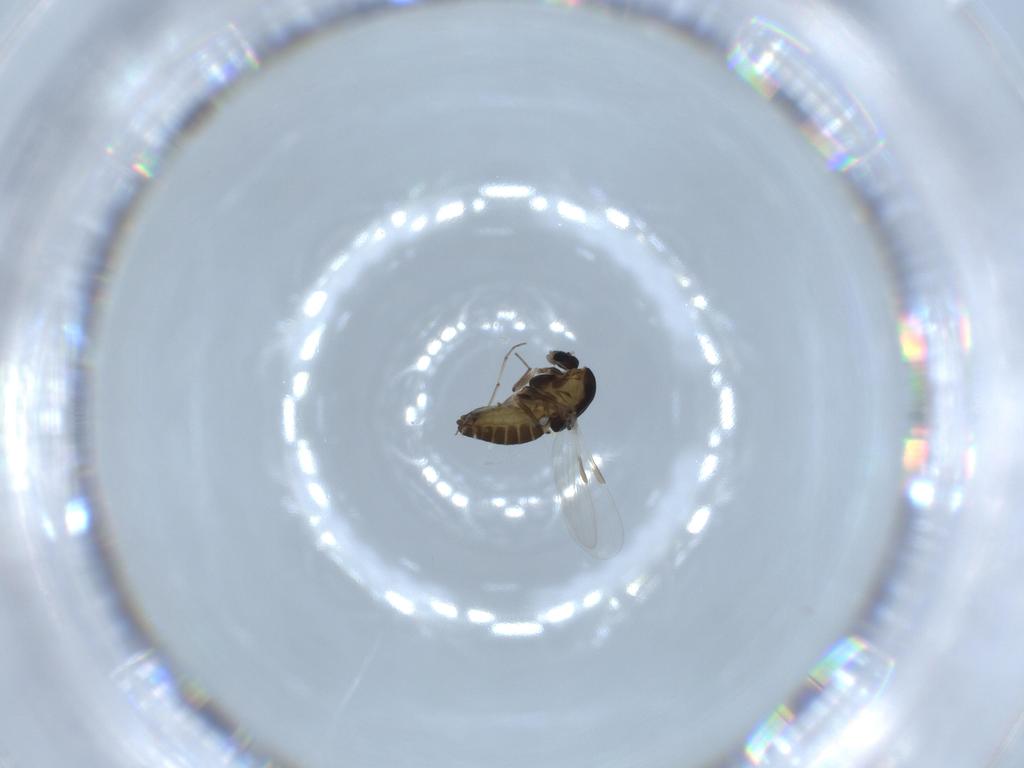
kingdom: Animalia
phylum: Arthropoda
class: Insecta
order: Diptera
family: Chironomidae
